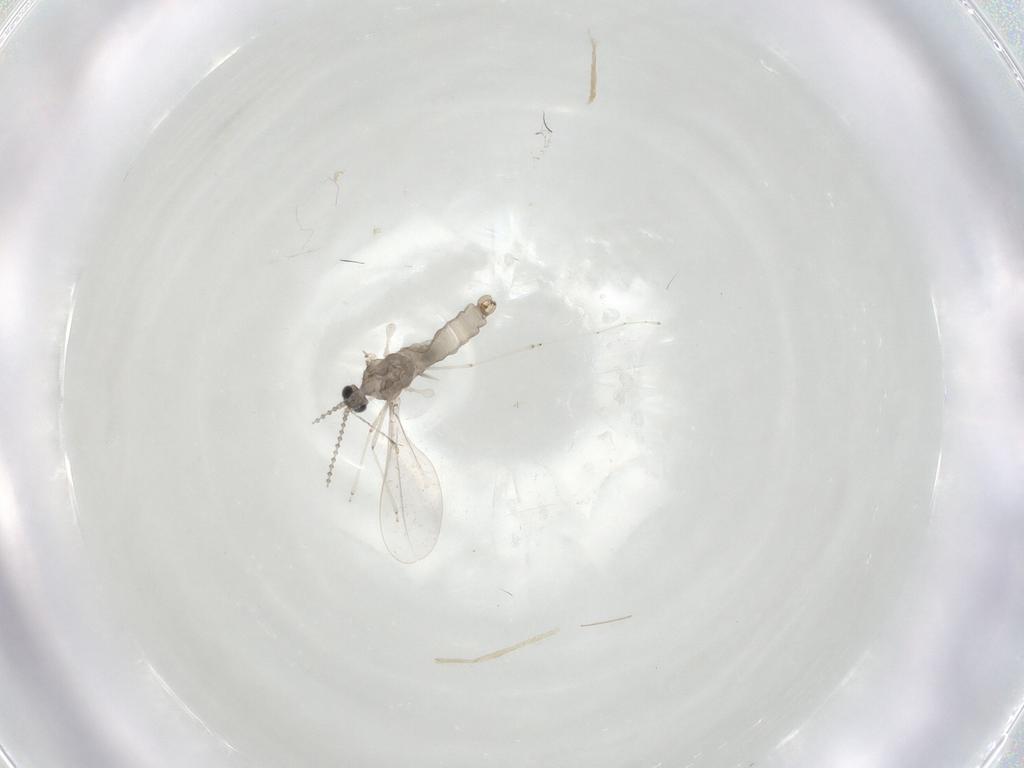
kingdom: Animalia
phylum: Arthropoda
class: Insecta
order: Diptera
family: Cecidomyiidae
